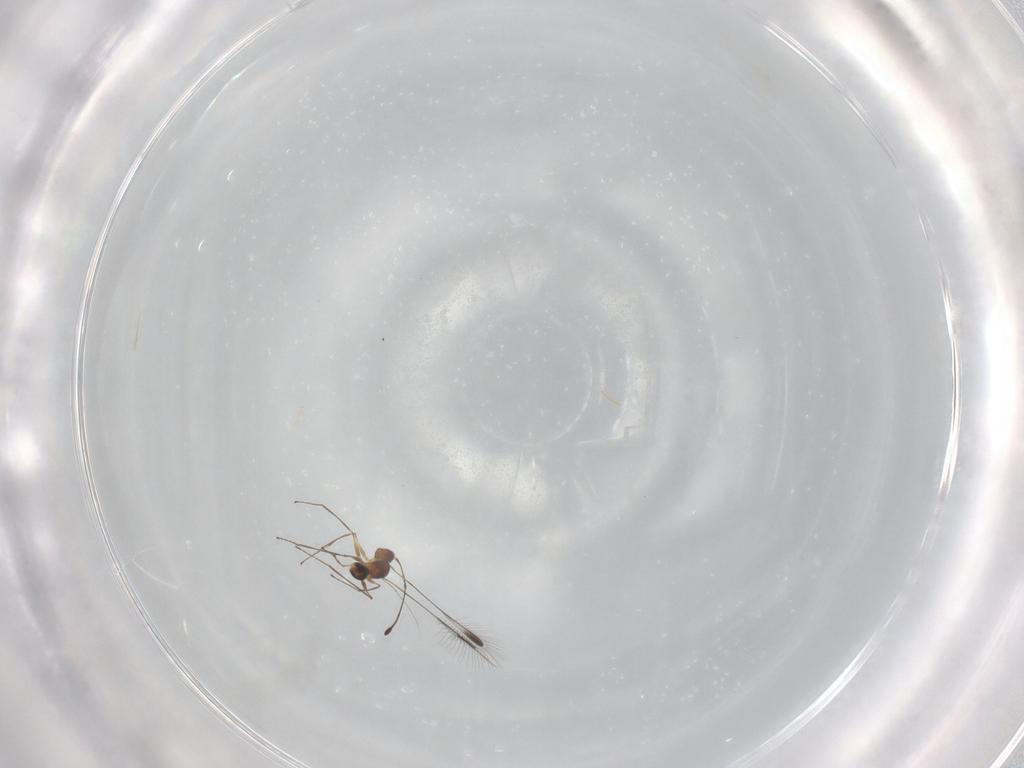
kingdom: Animalia
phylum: Arthropoda
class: Insecta
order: Hymenoptera
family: Mymaridae
